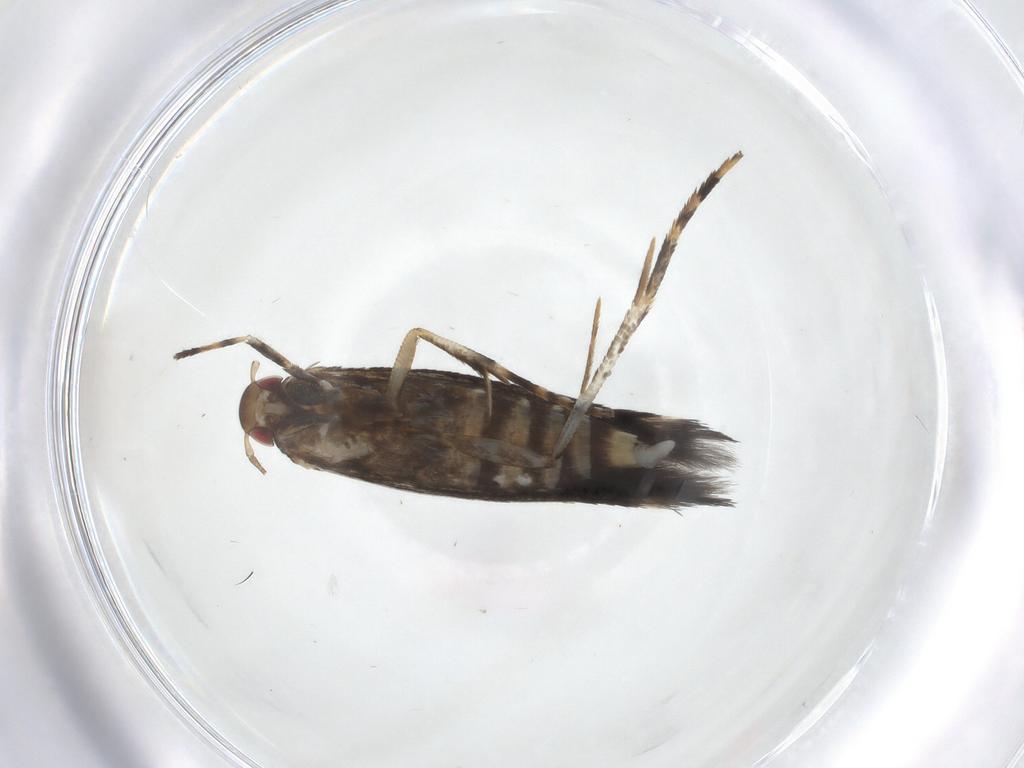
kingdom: Animalia
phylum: Arthropoda
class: Insecta
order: Lepidoptera
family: Cosmopterigidae
